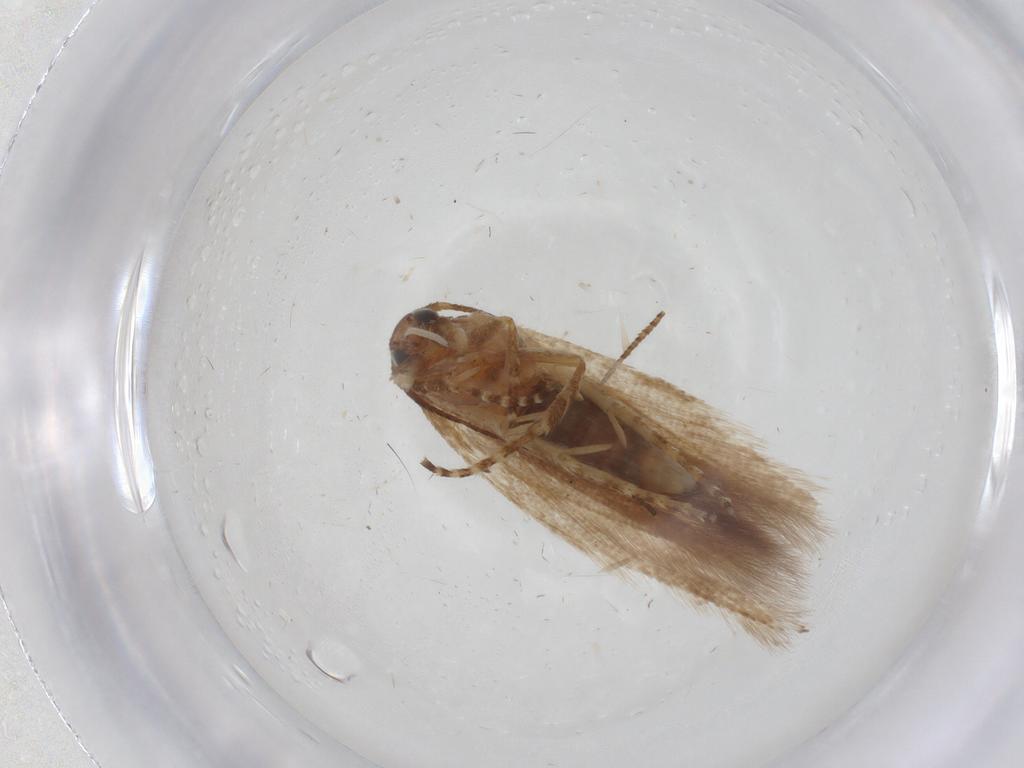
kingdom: Animalia
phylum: Arthropoda
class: Insecta
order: Lepidoptera
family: Gelechiidae
